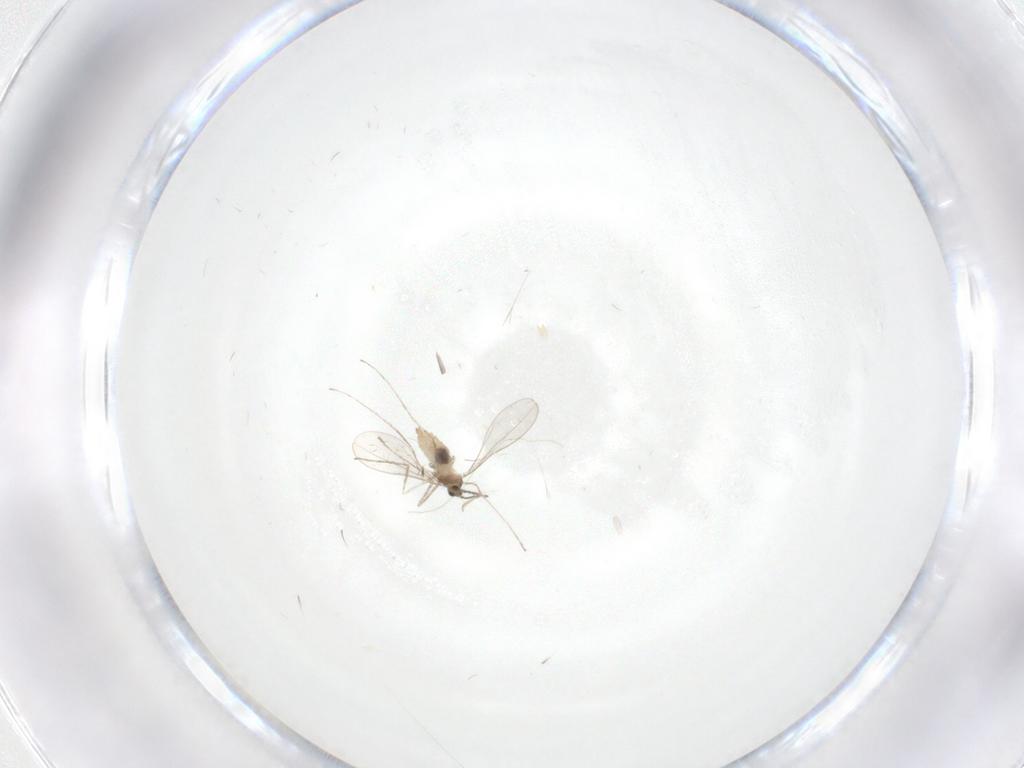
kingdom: Animalia
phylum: Arthropoda
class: Insecta
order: Diptera
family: Cecidomyiidae
